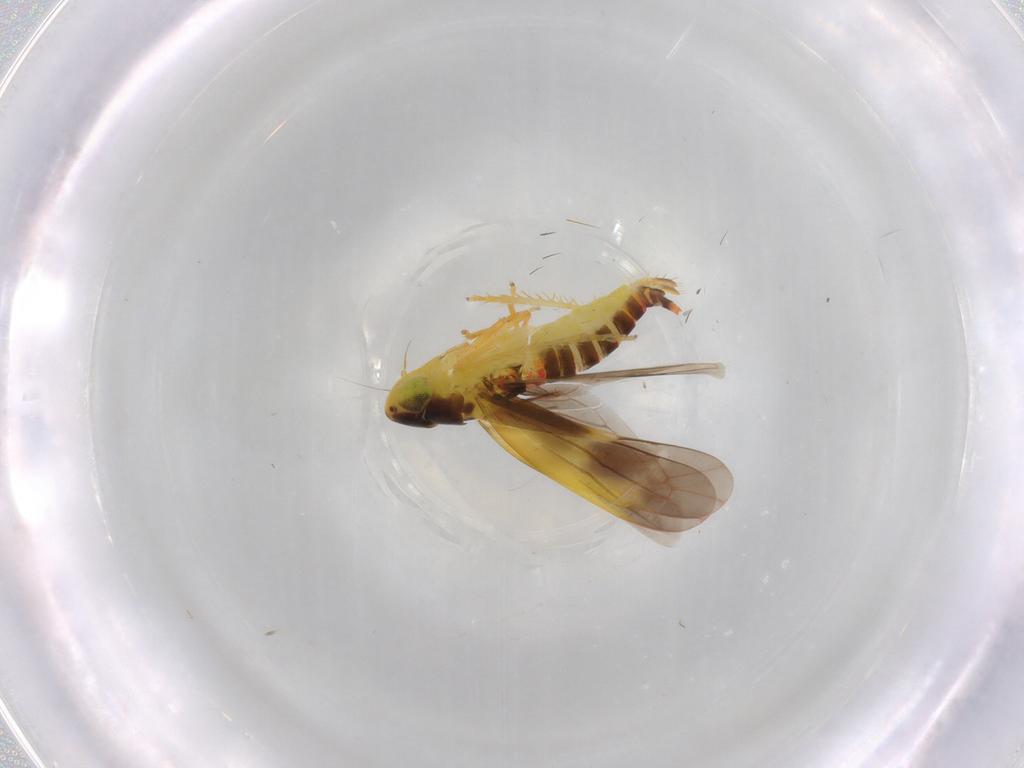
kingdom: Animalia
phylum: Arthropoda
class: Insecta
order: Hemiptera
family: Cicadellidae
